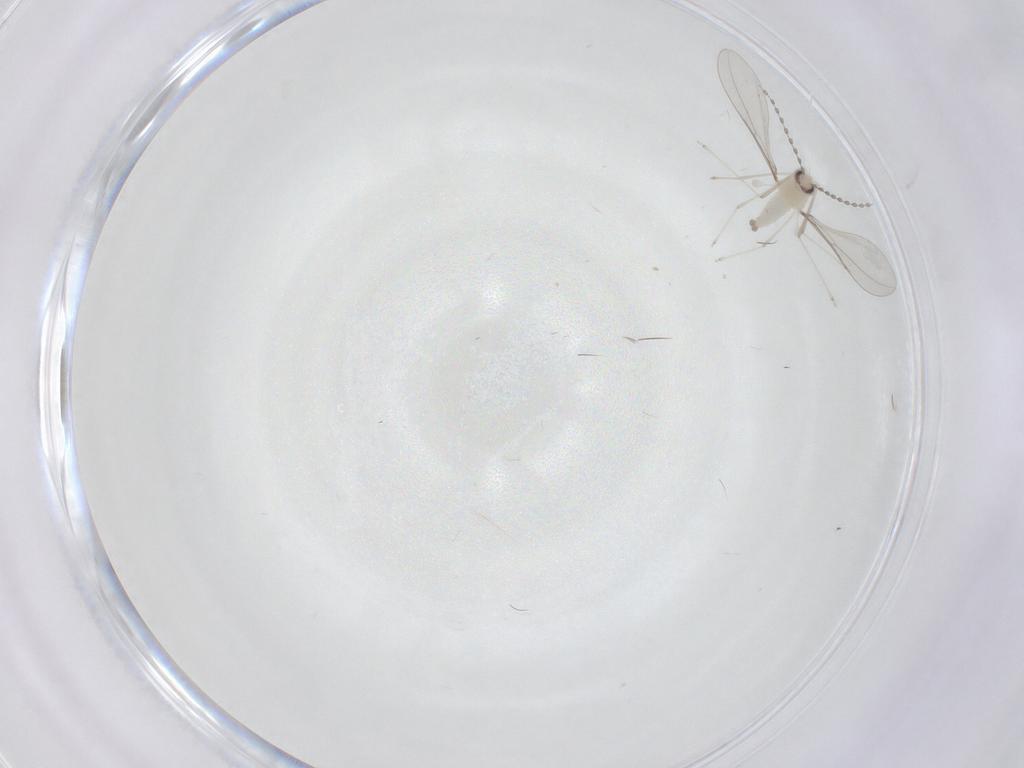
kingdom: Animalia
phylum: Arthropoda
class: Insecta
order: Diptera
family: Cecidomyiidae
